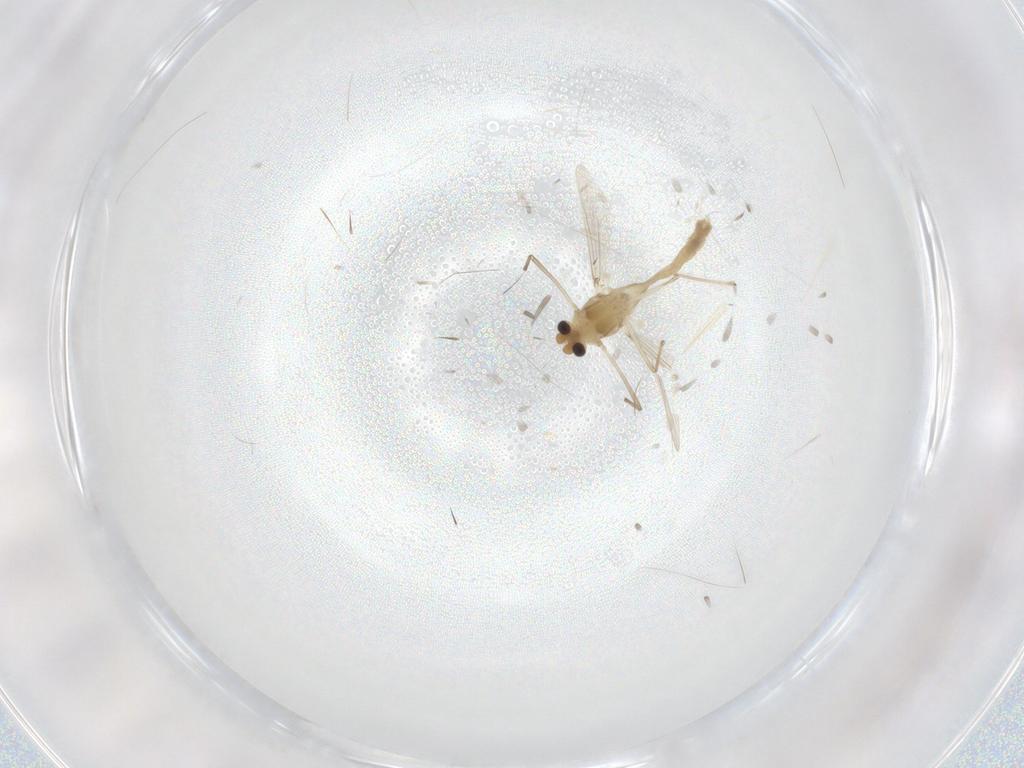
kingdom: Animalia
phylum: Arthropoda
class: Insecta
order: Diptera
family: Chironomidae
